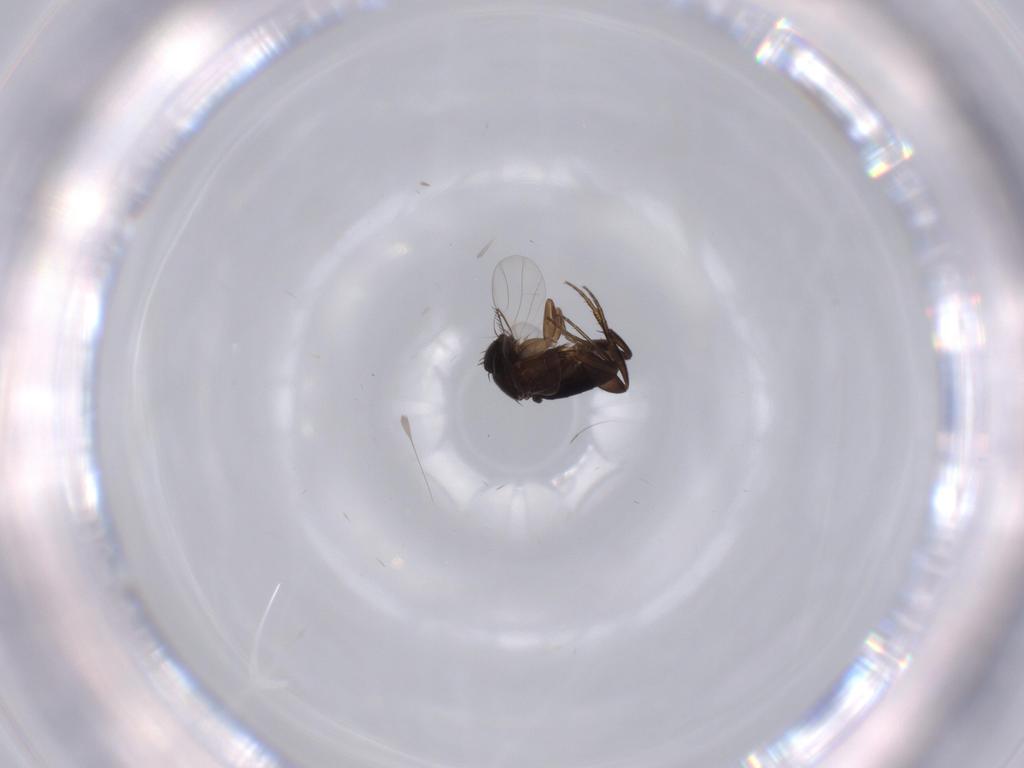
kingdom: Animalia
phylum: Arthropoda
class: Insecta
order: Diptera
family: Phoridae
